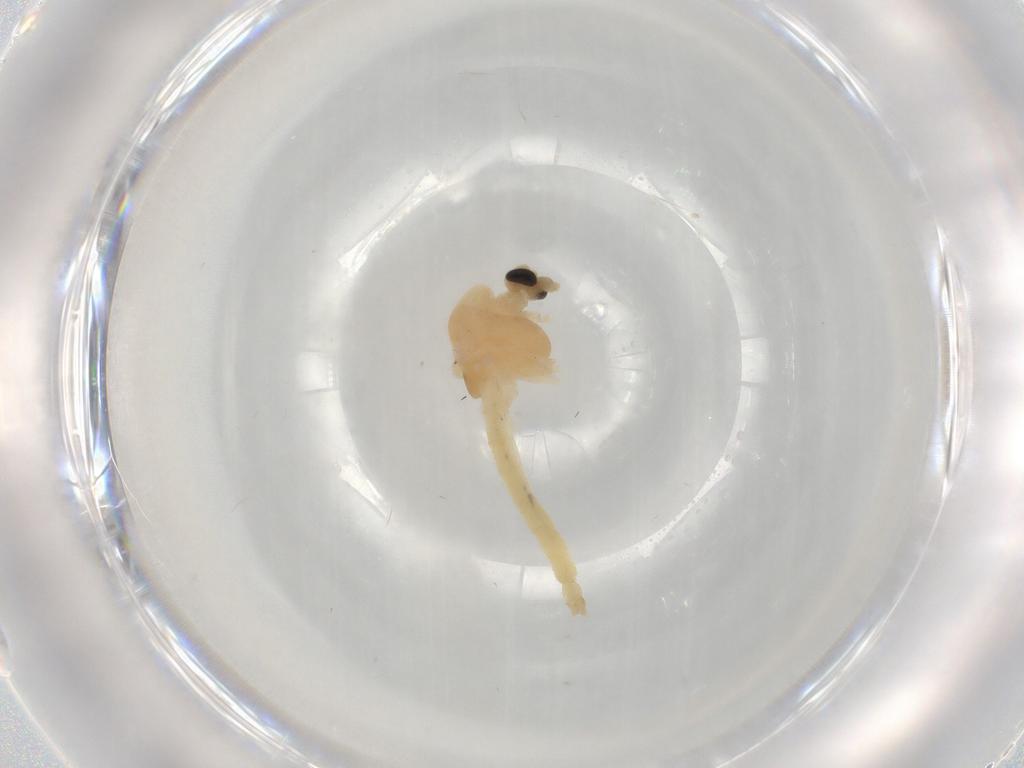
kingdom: Animalia
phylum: Arthropoda
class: Insecta
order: Diptera
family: Chironomidae
